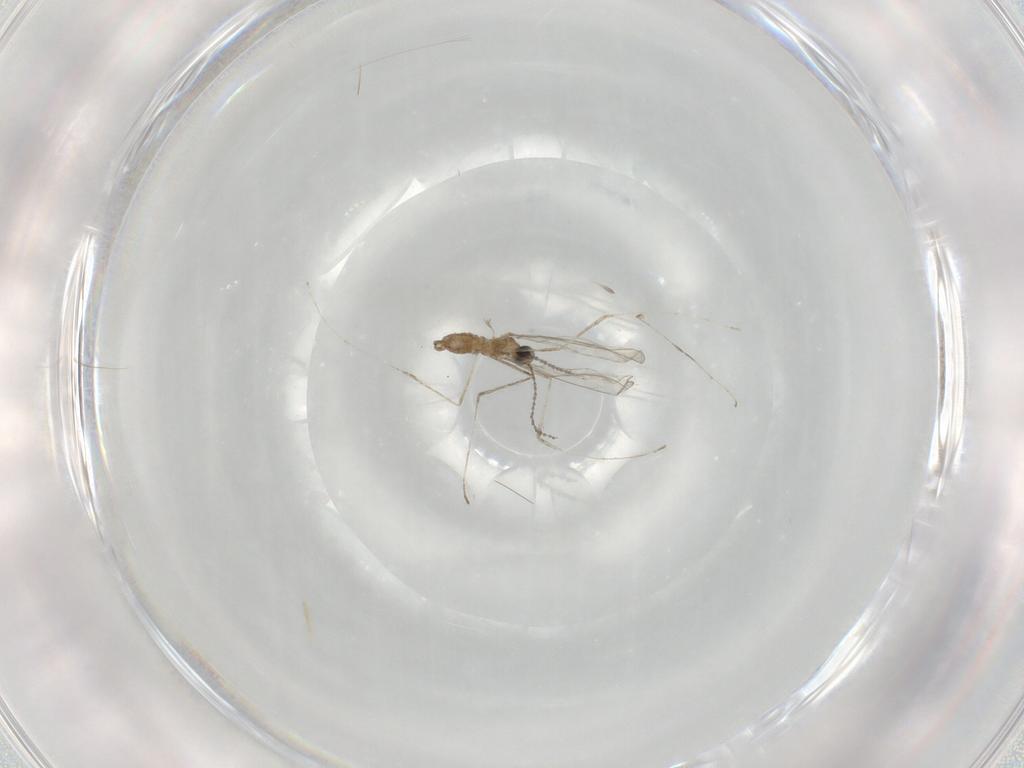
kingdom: Animalia
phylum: Arthropoda
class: Insecta
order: Diptera
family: Cecidomyiidae
